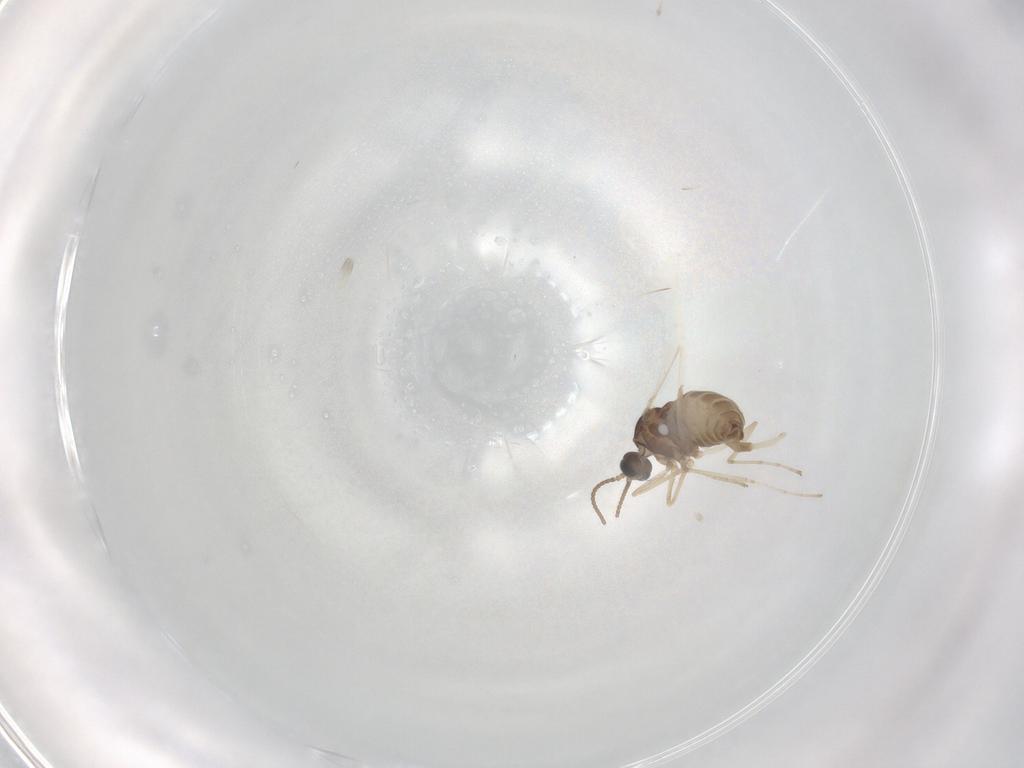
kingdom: Animalia
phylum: Arthropoda
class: Insecta
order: Diptera
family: Cecidomyiidae
